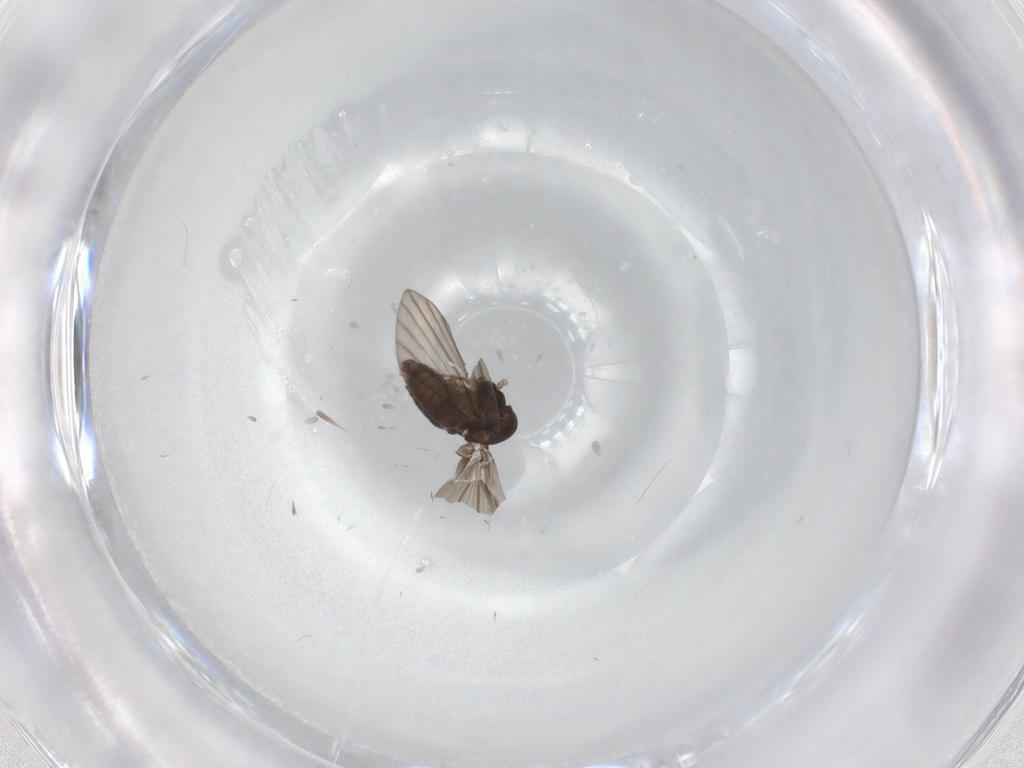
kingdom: Animalia
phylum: Arthropoda
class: Insecta
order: Diptera
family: Psychodidae
